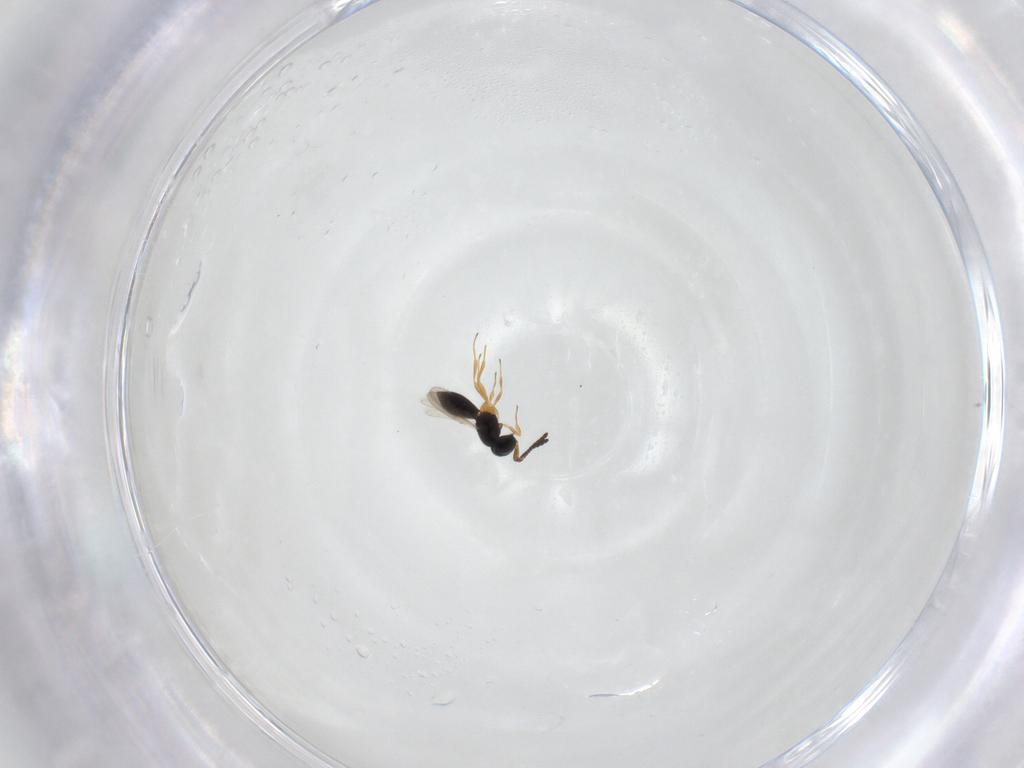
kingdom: Animalia
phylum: Arthropoda
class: Insecta
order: Hymenoptera
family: Scelionidae
